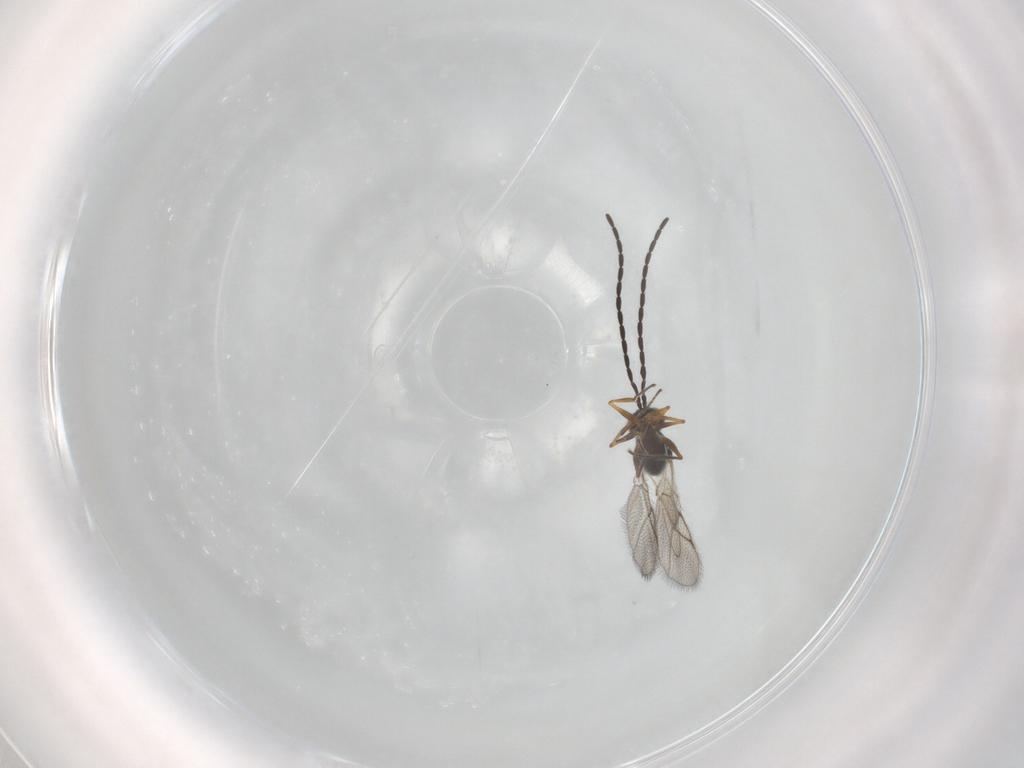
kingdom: Animalia
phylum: Arthropoda
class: Insecta
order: Hymenoptera
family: Figitidae
